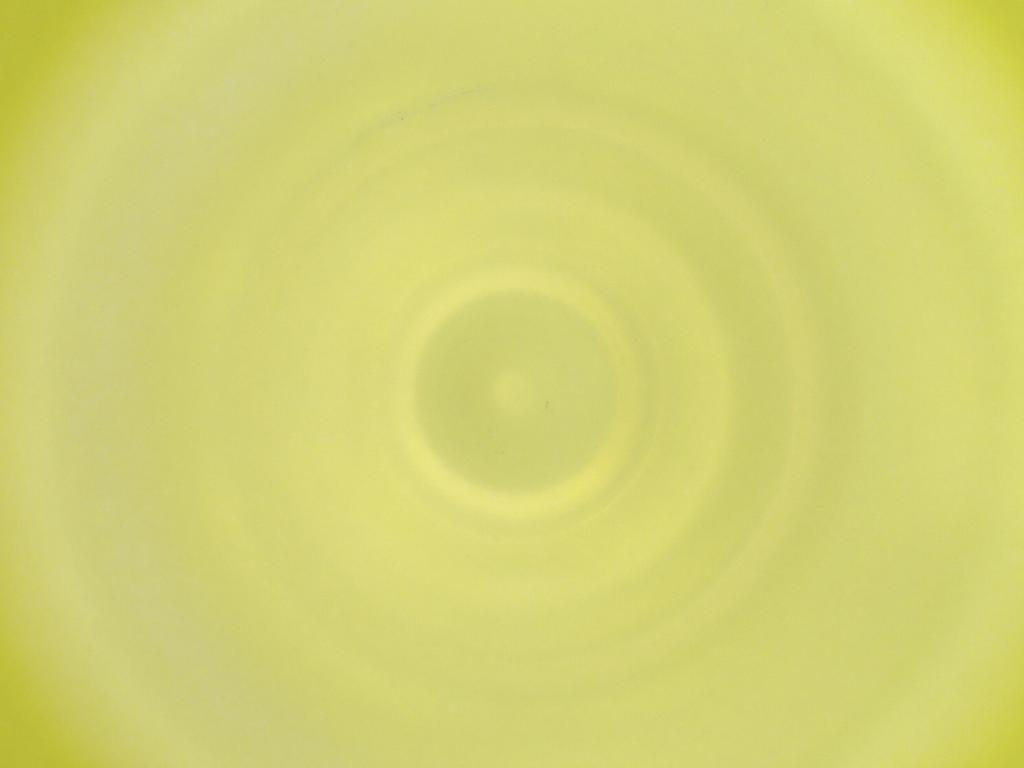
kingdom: Animalia
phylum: Arthropoda
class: Insecta
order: Diptera
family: Cecidomyiidae
